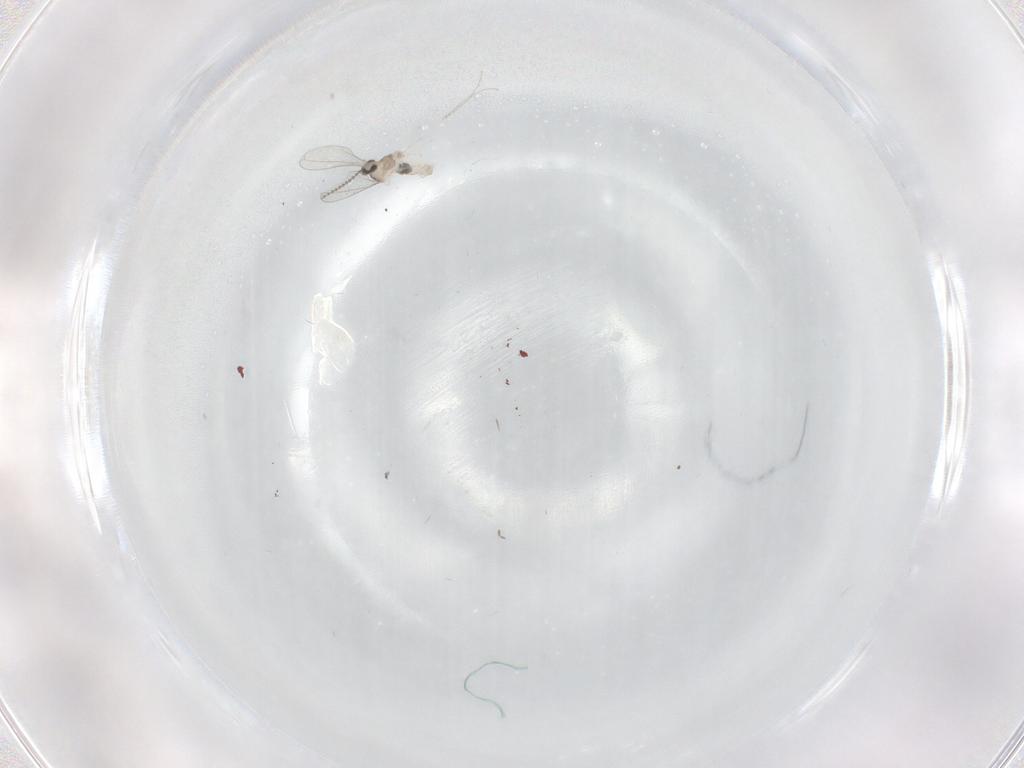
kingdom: Animalia
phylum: Arthropoda
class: Insecta
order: Diptera
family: Cecidomyiidae
